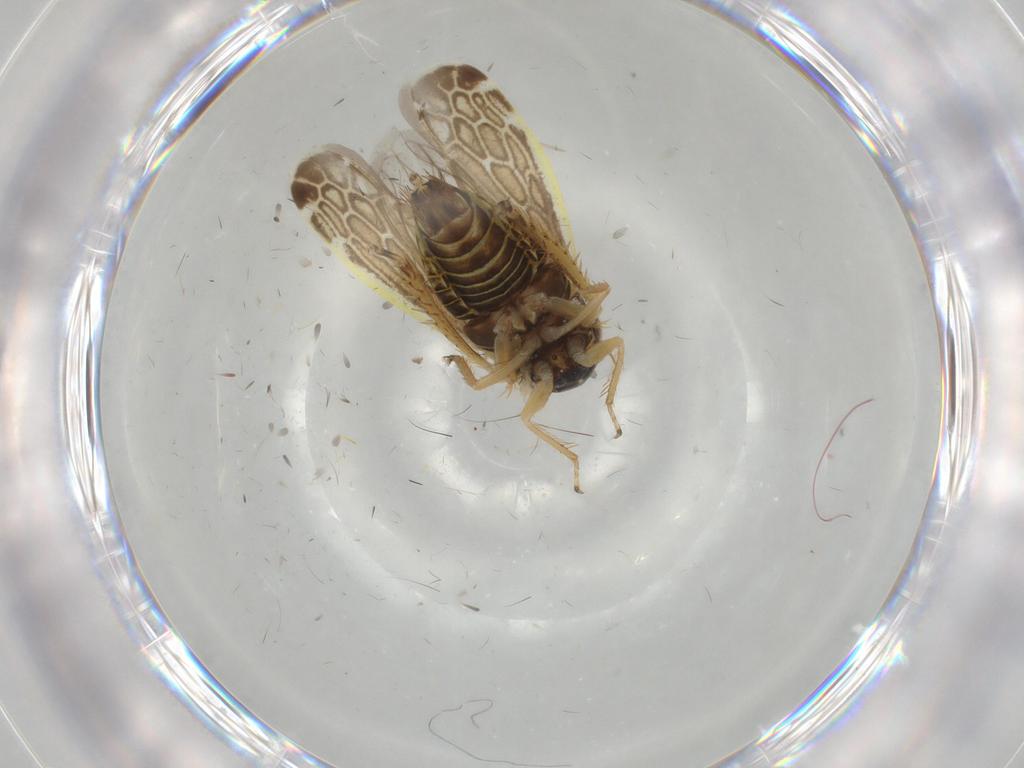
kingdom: Animalia
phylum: Arthropoda
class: Insecta
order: Hemiptera
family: Cicadellidae
